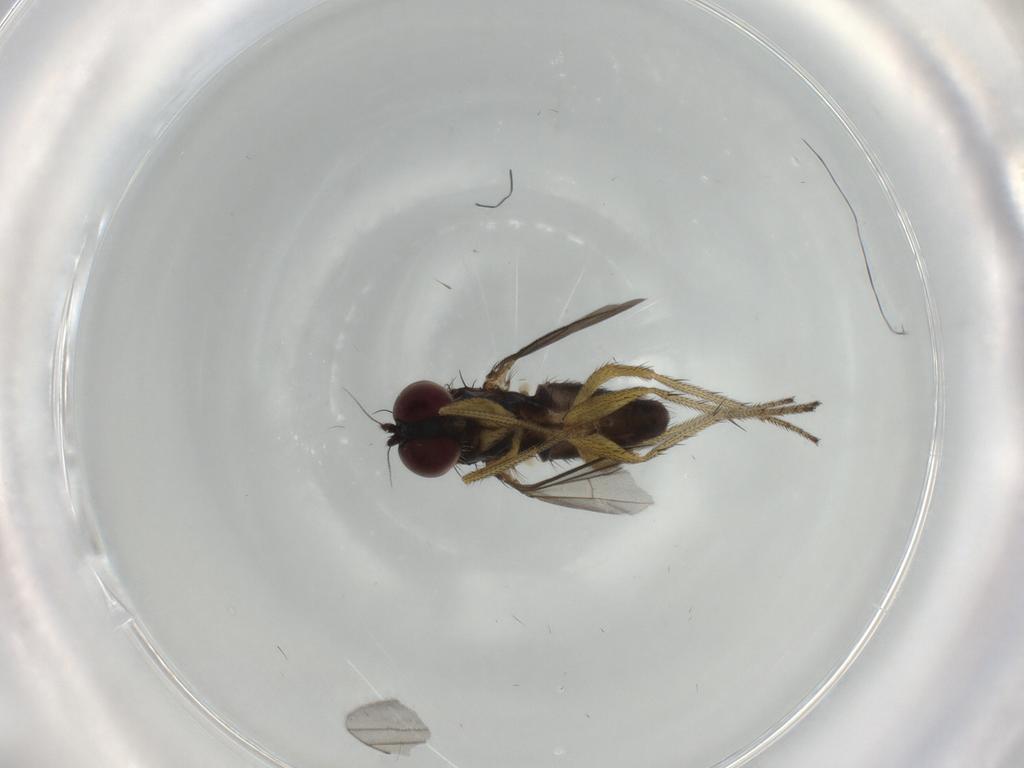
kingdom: Animalia
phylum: Arthropoda
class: Insecta
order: Diptera
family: Dolichopodidae
